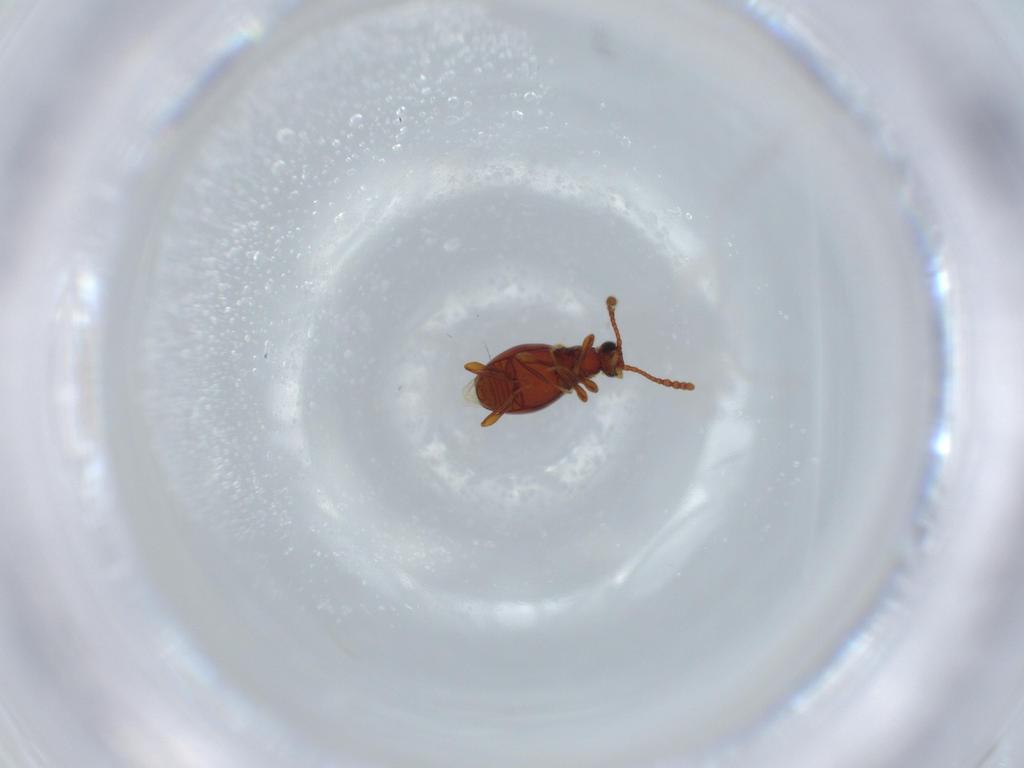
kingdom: Animalia
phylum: Arthropoda
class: Insecta
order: Coleoptera
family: Staphylinidae
